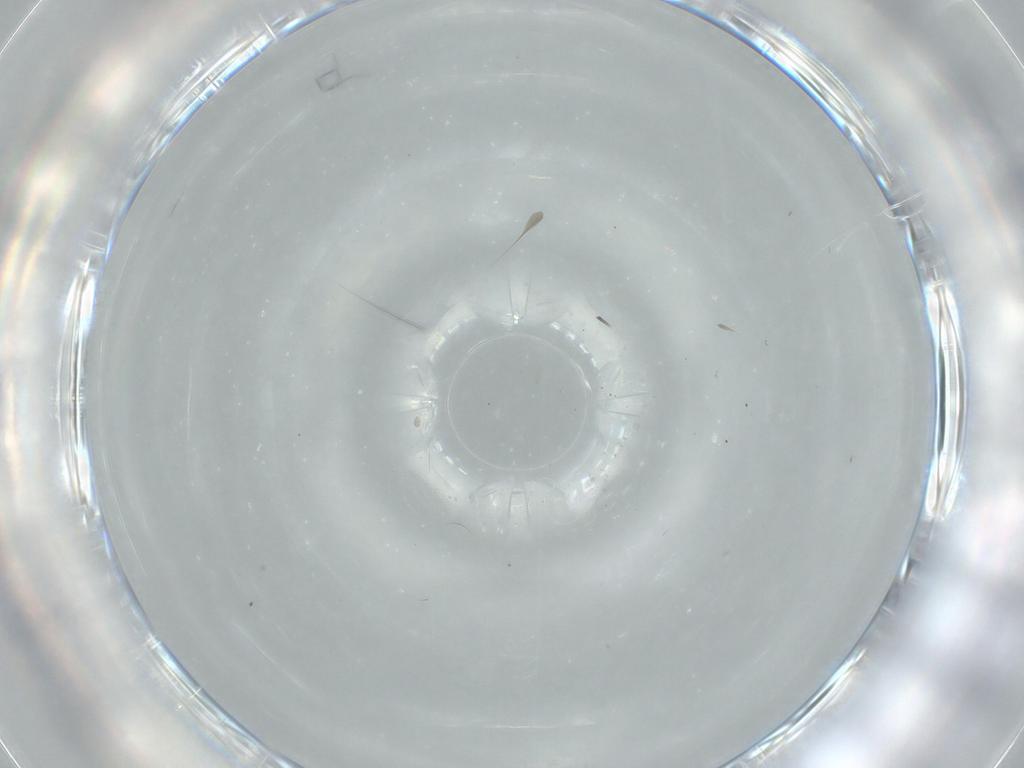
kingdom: Animalia
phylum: Arthropoda
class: Insecta
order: Diptera
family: Cecidomyiidae
